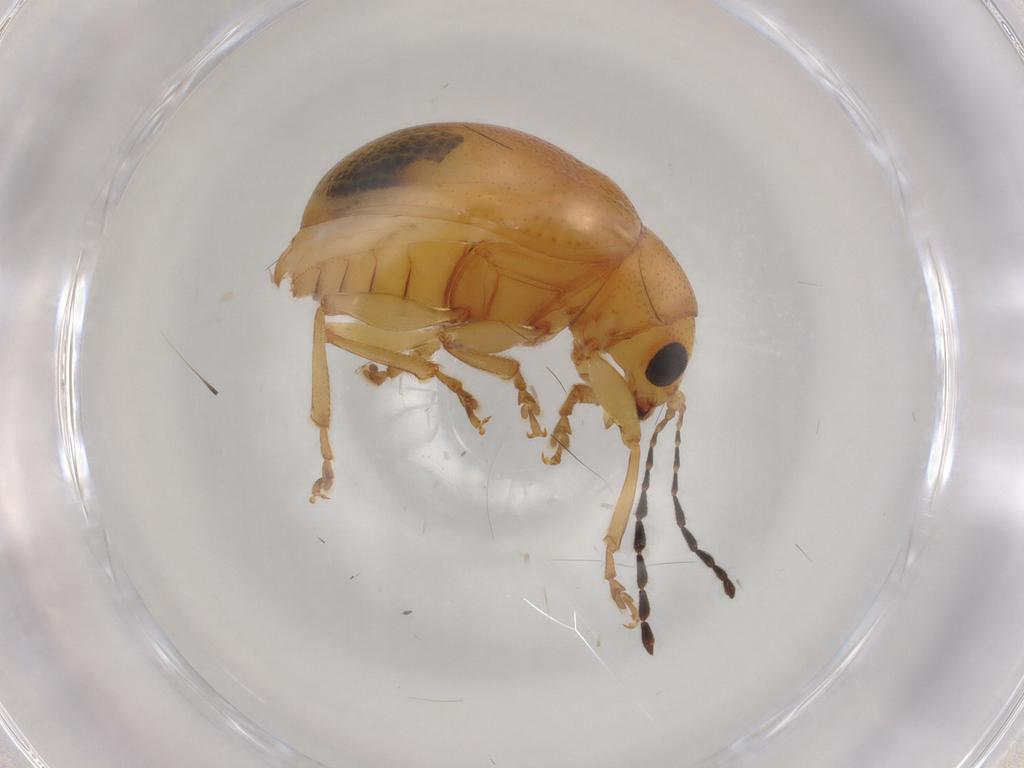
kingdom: Animalia
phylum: Arthropoda
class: Insecta
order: Coleoptera
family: Chrysomelidae
